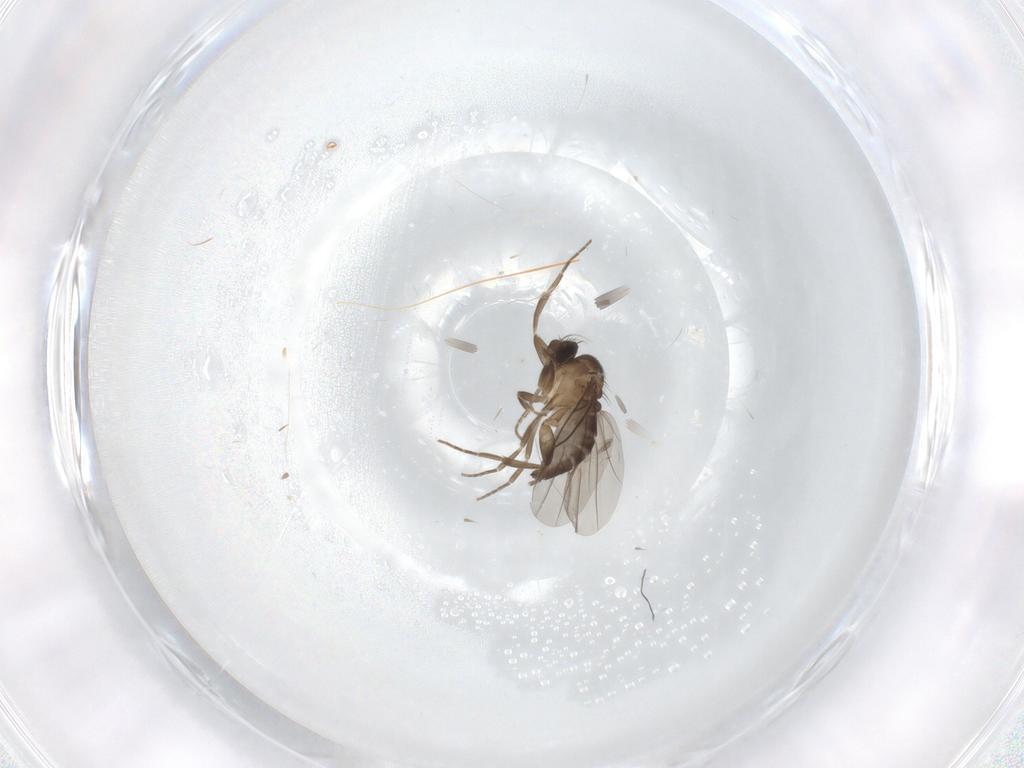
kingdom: Animalia
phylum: Arthropoda
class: Insecta
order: Diptera
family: Phoridae
